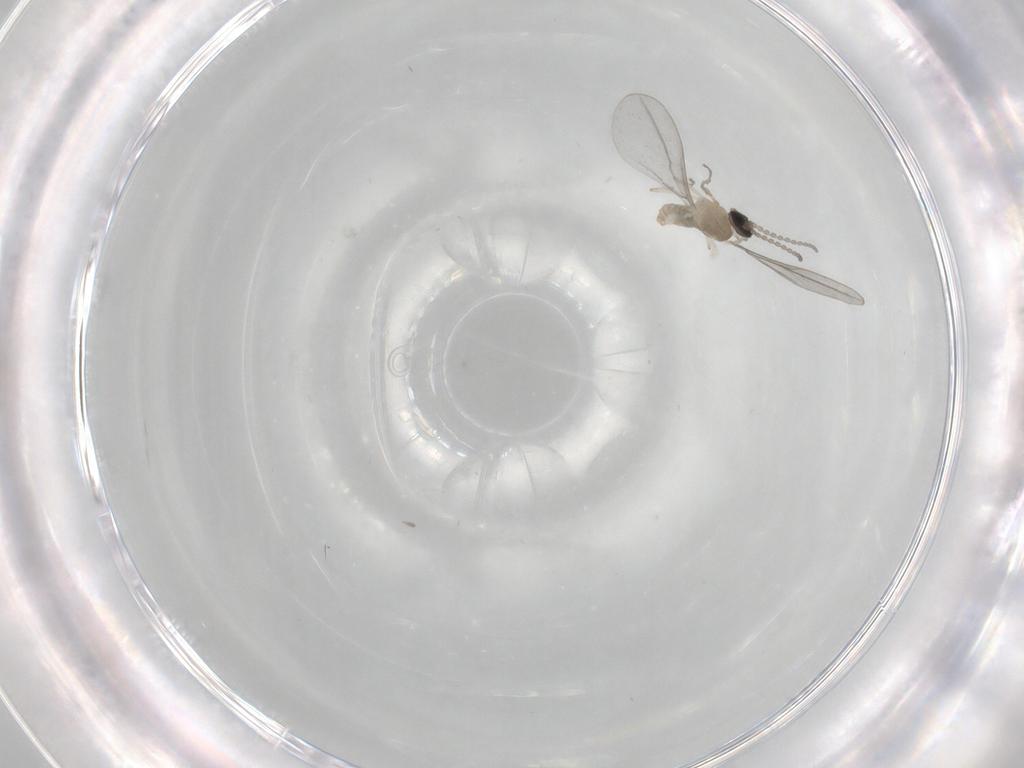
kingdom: Animalia
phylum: Arthropoda
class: Insecta
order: Diptera
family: Cecidomyiidae
